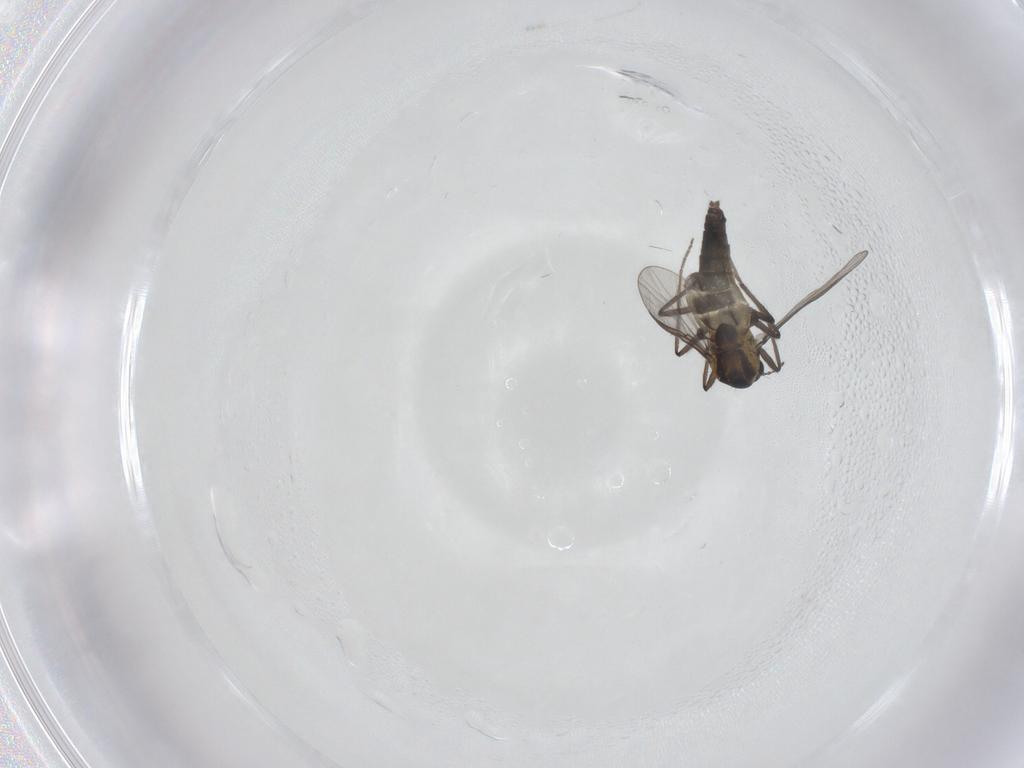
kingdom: Animalia
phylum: Arthropoda
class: Insecta
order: Diptera
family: Chironomidae
